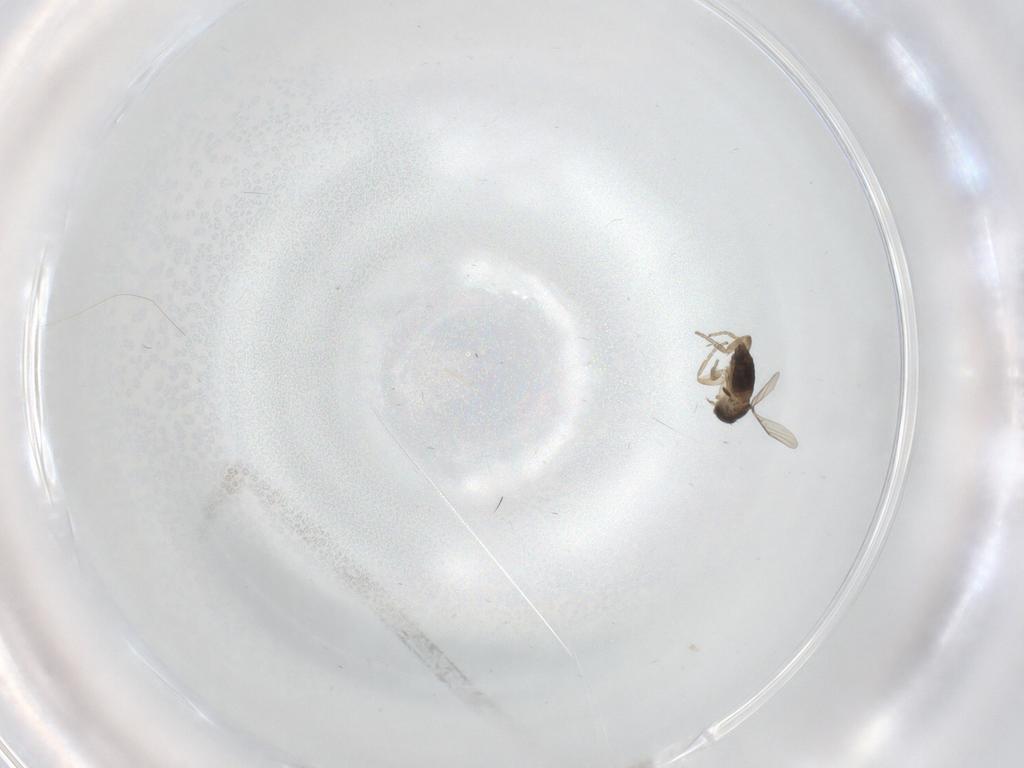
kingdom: Animalia
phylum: Arthropoda
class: Insecta
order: Diptera
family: Phoridae
